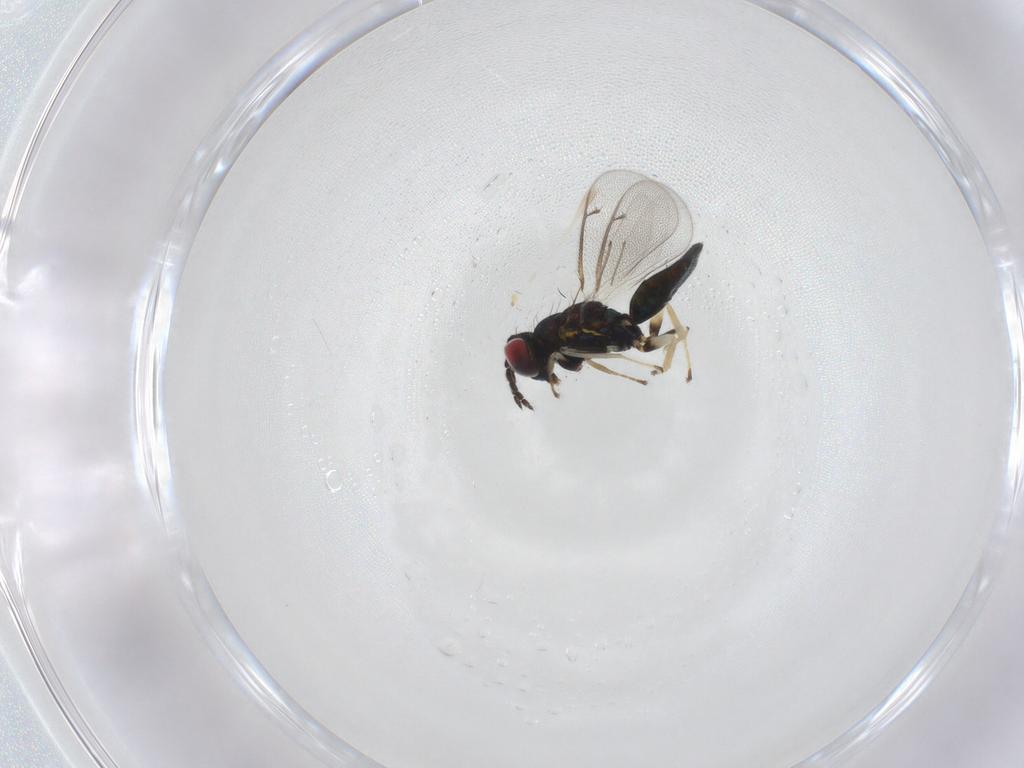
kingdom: Animalia
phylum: Arthropoda
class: Insecta
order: Hymenoptera
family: Eulophidae
